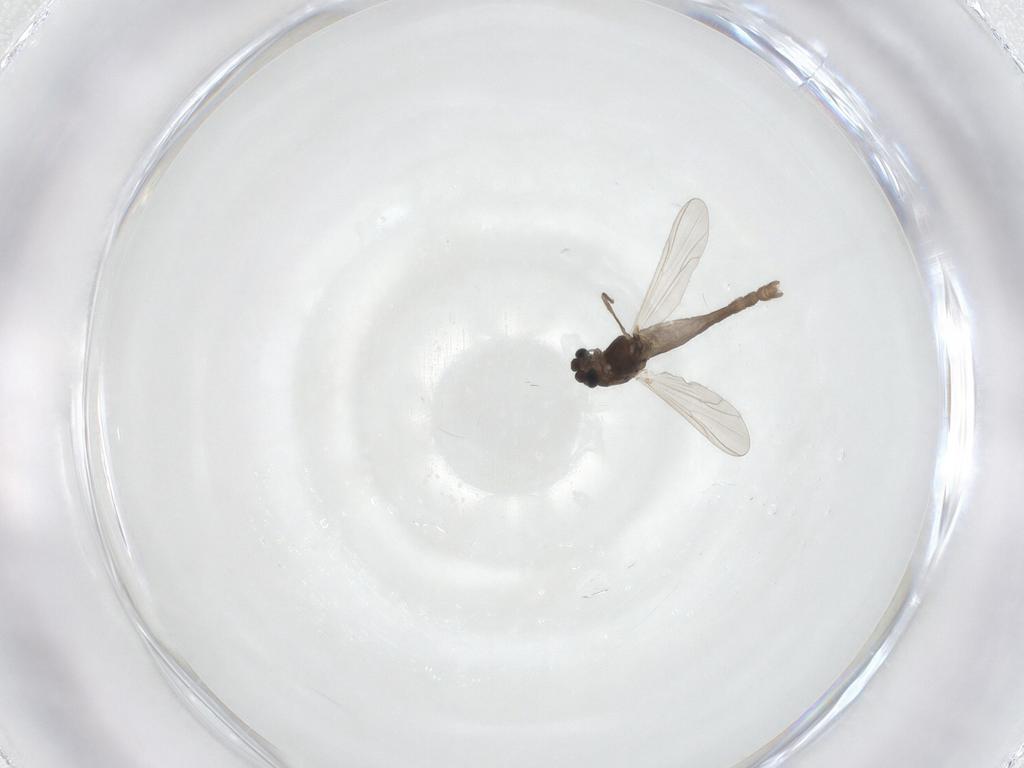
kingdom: Animalia
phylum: Arthropoda
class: Insecta
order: Diptera
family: Chironomidae
